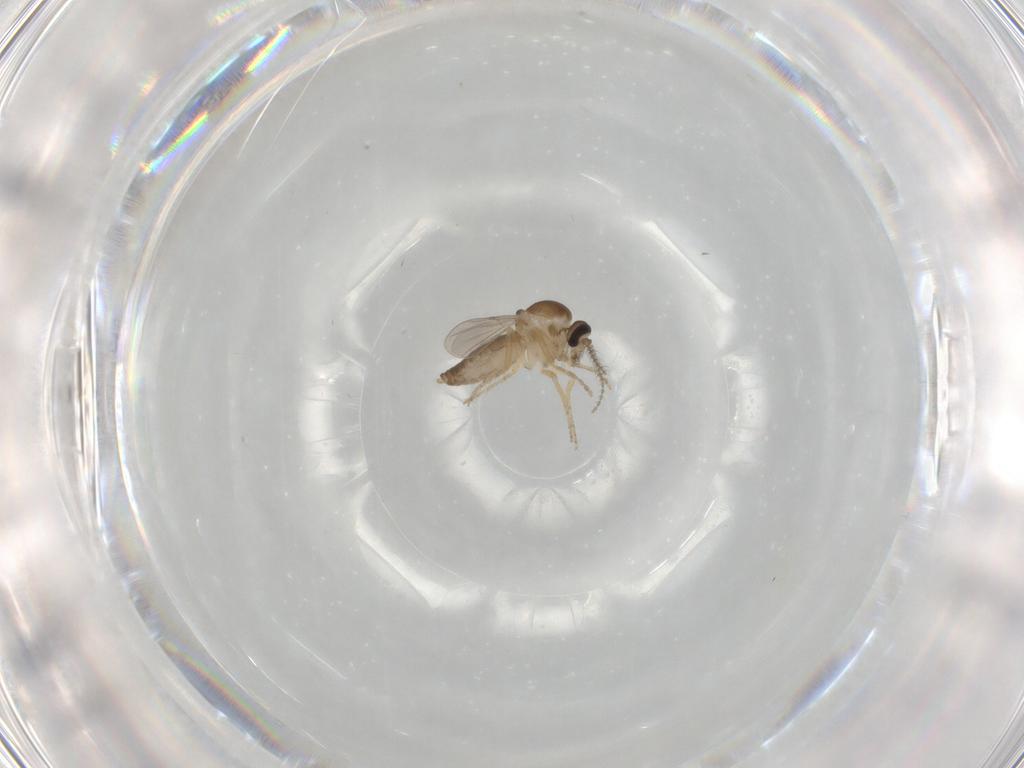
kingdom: Animalia
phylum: Arthropoda
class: Insecta
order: Diptera
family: Ceratopogonidae
